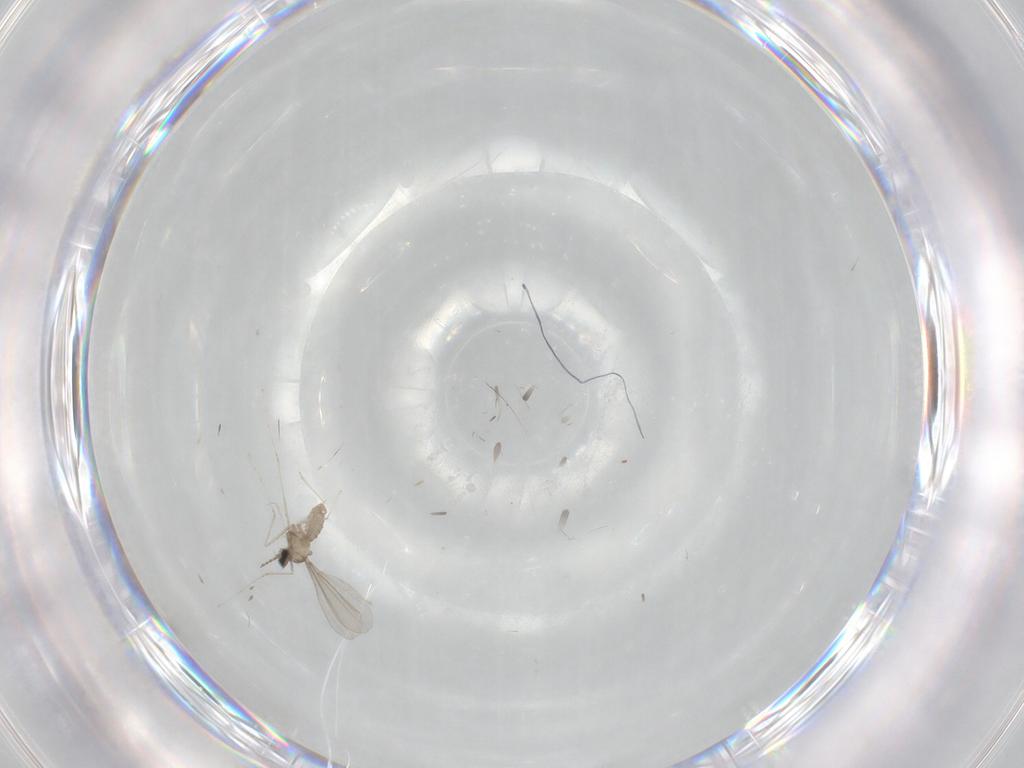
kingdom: Animalia
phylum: Arthropoda
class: Insecta
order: Diptera
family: Cecidomyiidae
